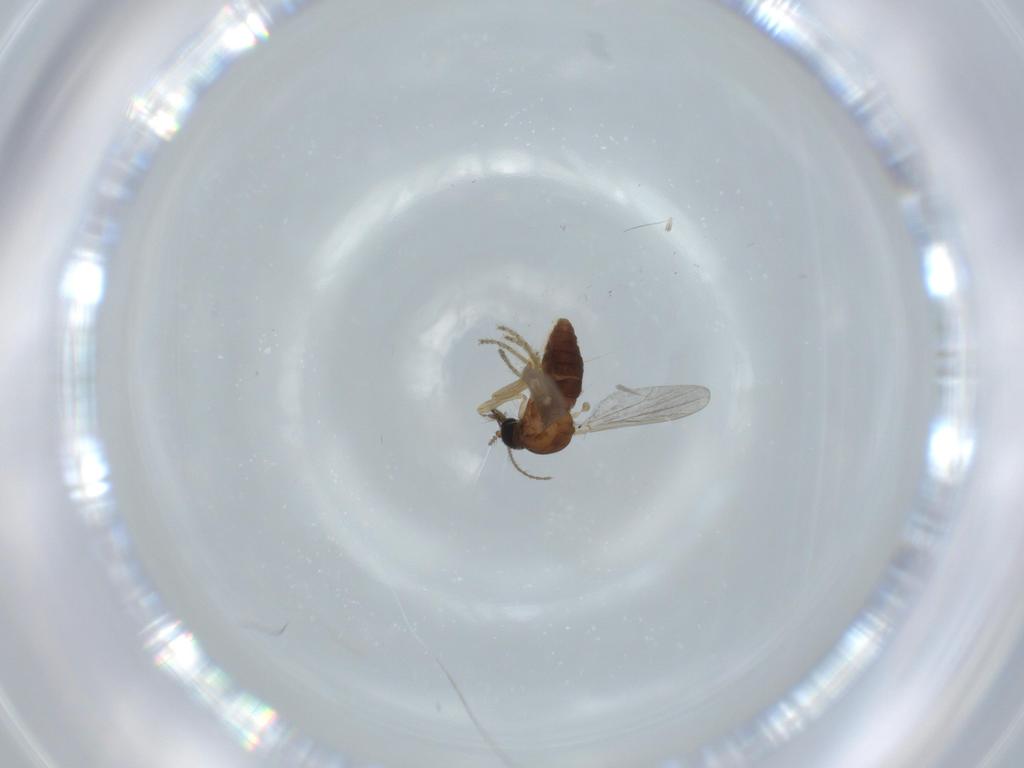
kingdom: Animalia
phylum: Arthropoda
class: Insecta
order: Diptera
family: Ceratopogonidae
